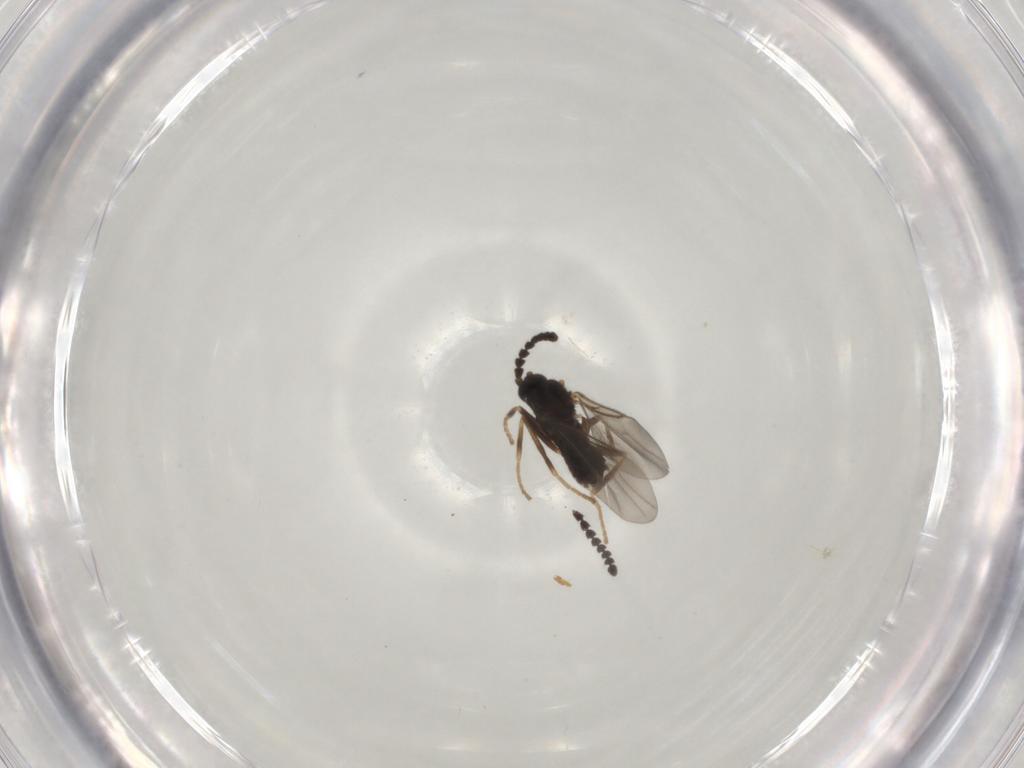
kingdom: Animalia
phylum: Arthropoda
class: Insecta
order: Diptera
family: Scatopsidae
